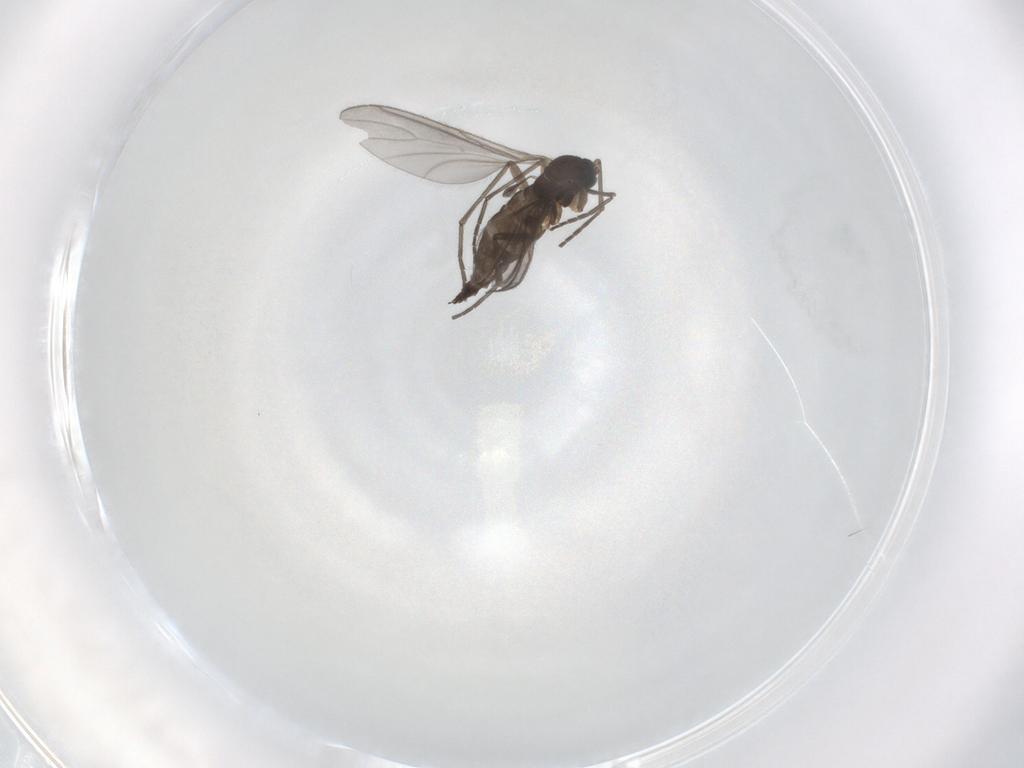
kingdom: Animalia
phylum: Arthropoda
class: Insecta
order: Diptera
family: Sciaridae
